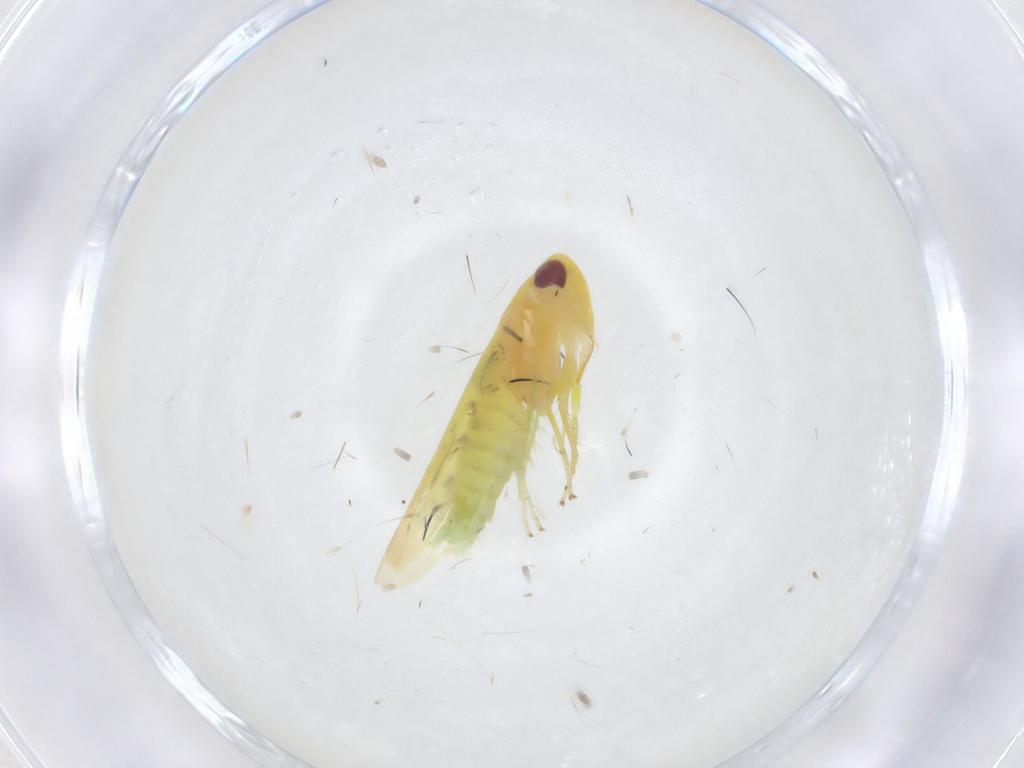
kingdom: Animalia
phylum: Arthropoda
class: Insecta
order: Hemiptera
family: Cicadellidae
